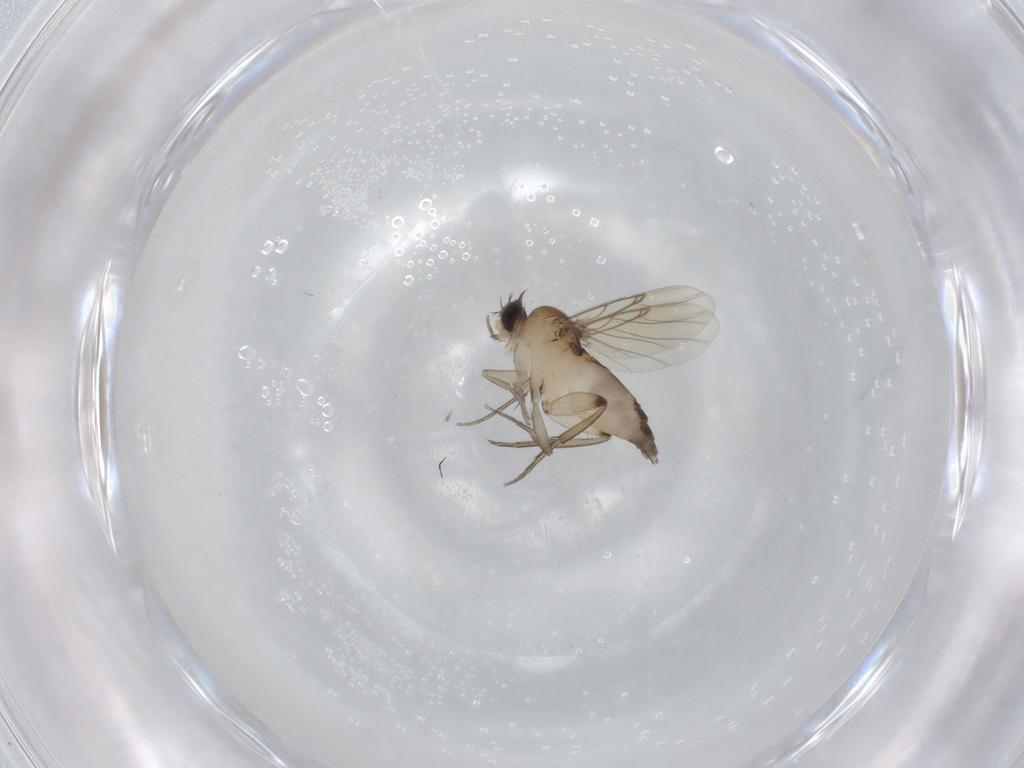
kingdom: Animalia
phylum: Arthropoda
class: Insecta
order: Diptera
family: Phoridae
